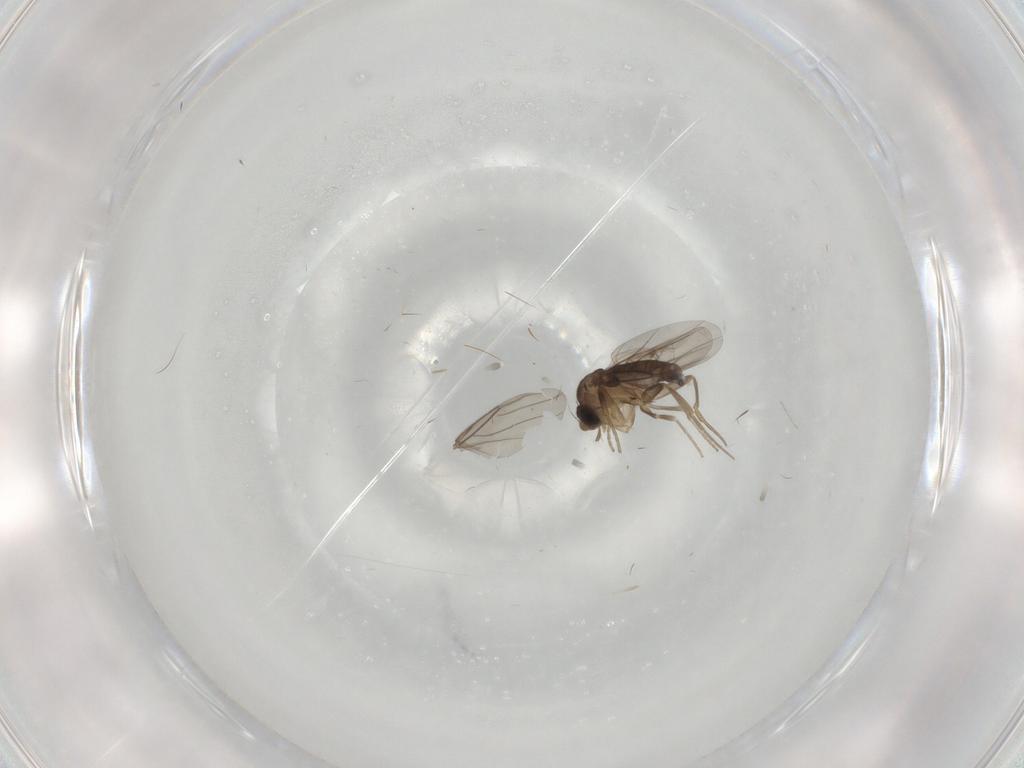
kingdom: Animalia
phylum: Arthropoda
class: Insecta
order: Diptera
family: Phoridae
